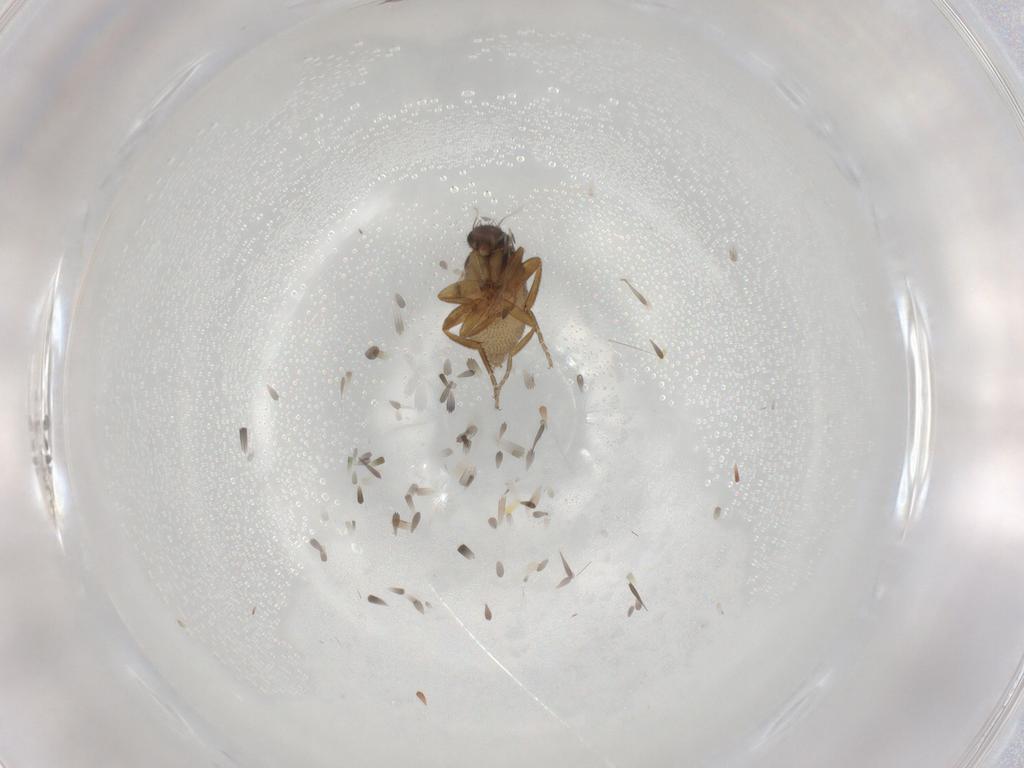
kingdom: Animalia
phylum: Arthropoda
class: Insecta
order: Diptera
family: Phoridae
